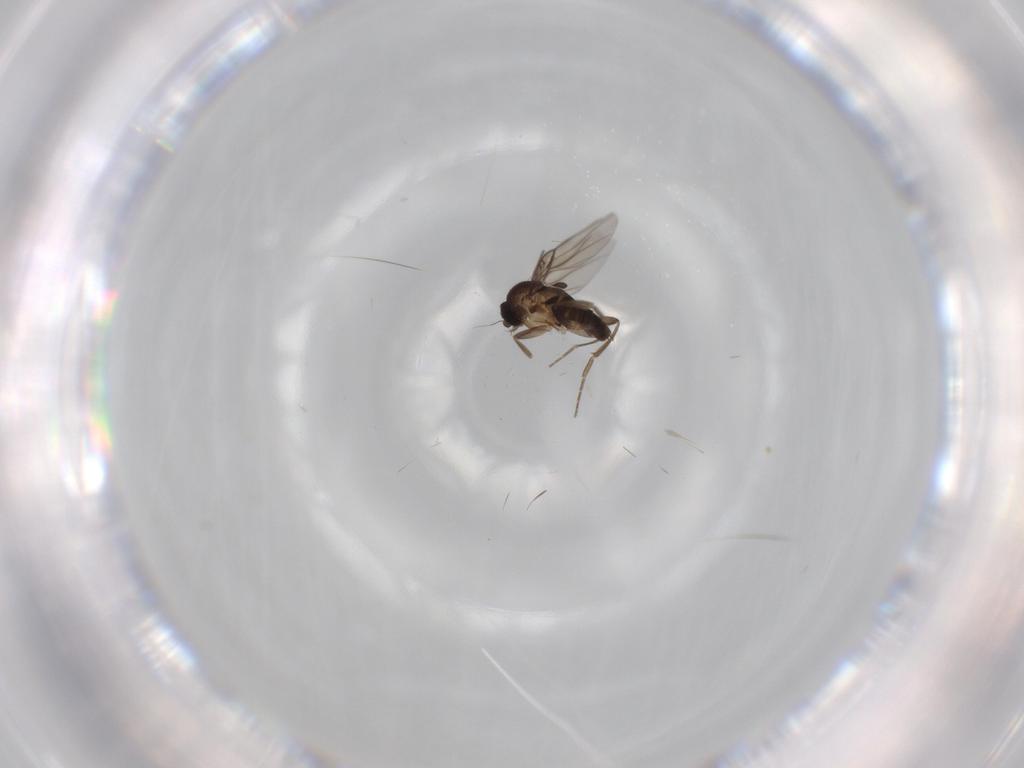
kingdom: Animalia
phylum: Arthropoda
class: Insecta
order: Diptera
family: Phoridae
